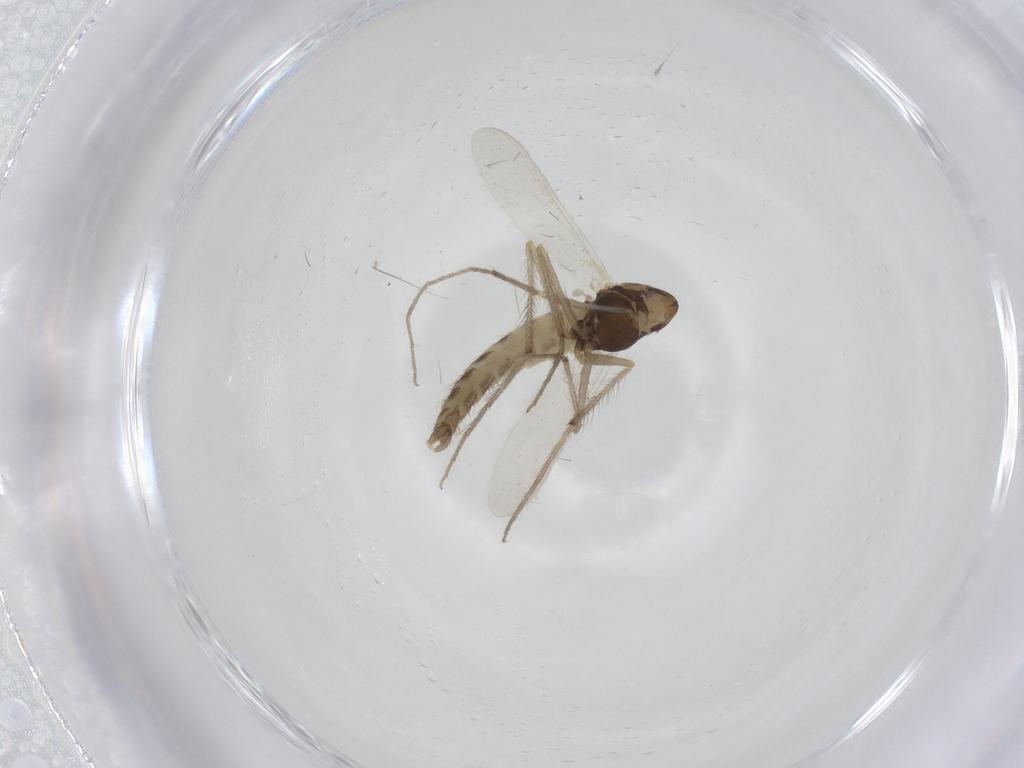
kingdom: Animalia
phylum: Arthropoda
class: Insecta
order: Diptera
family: Chironomidae
